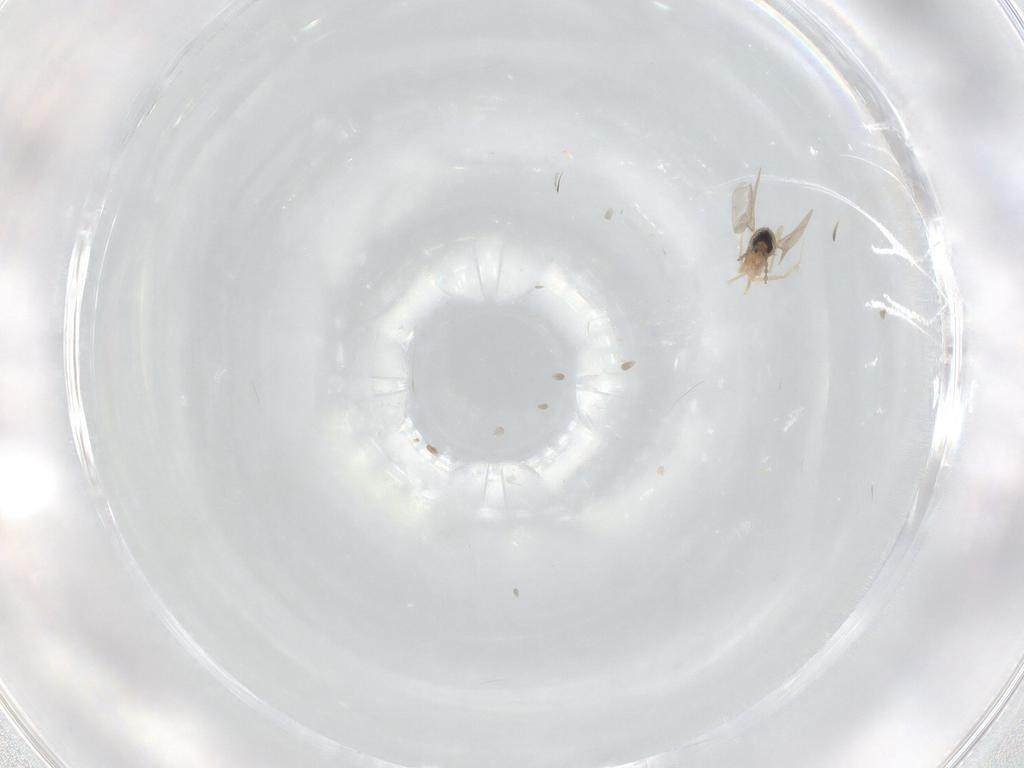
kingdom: Animalia
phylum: Arthropoda
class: Insecta
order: Diptera
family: Cecidomyiidae
